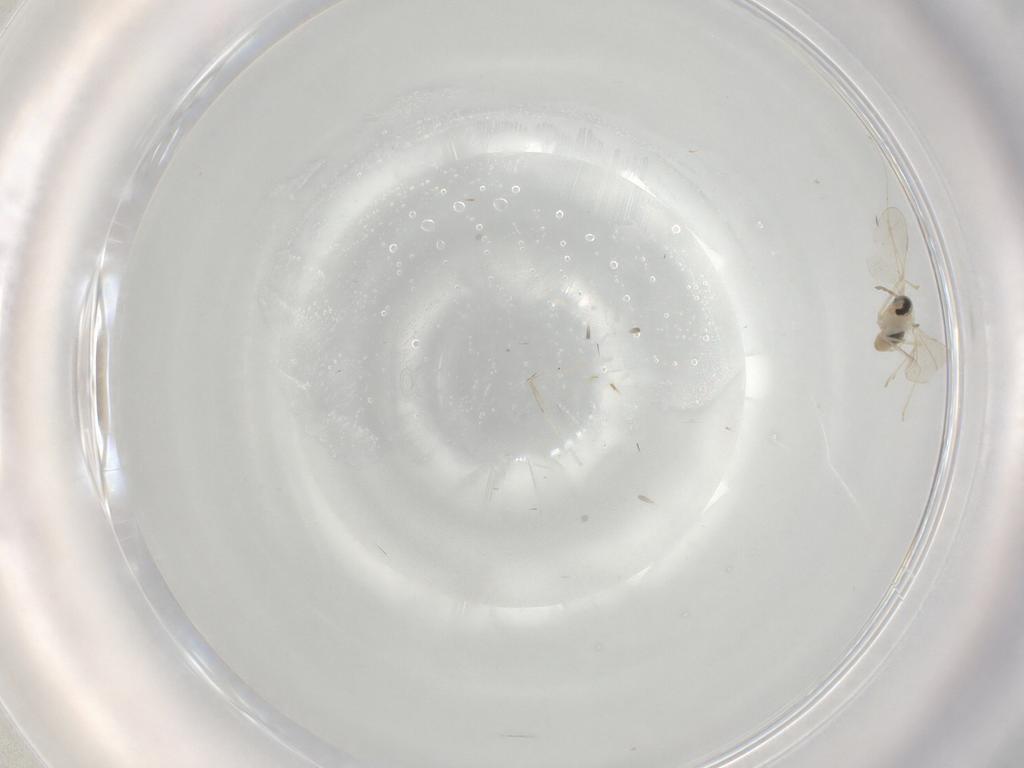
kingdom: Animalia
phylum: Arthropoda
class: Insecta
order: Diptera
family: Cecidomyiidae
